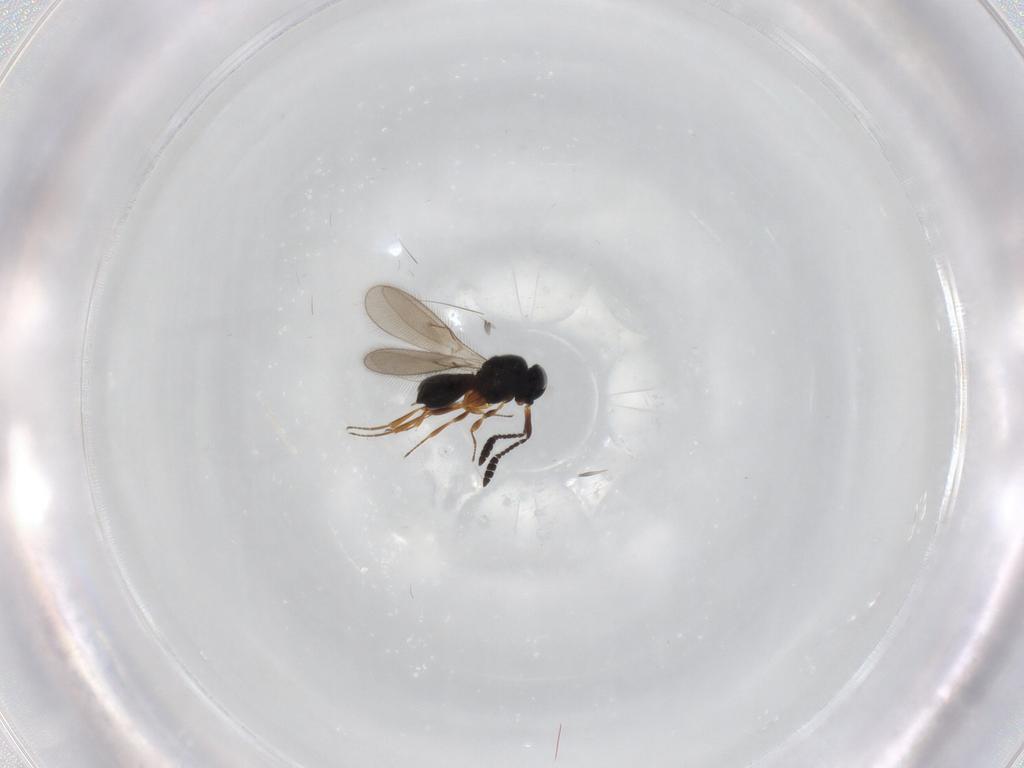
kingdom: Animalia
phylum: Arthropoda
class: Insecta
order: Hymenoptera
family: Scelionidae
